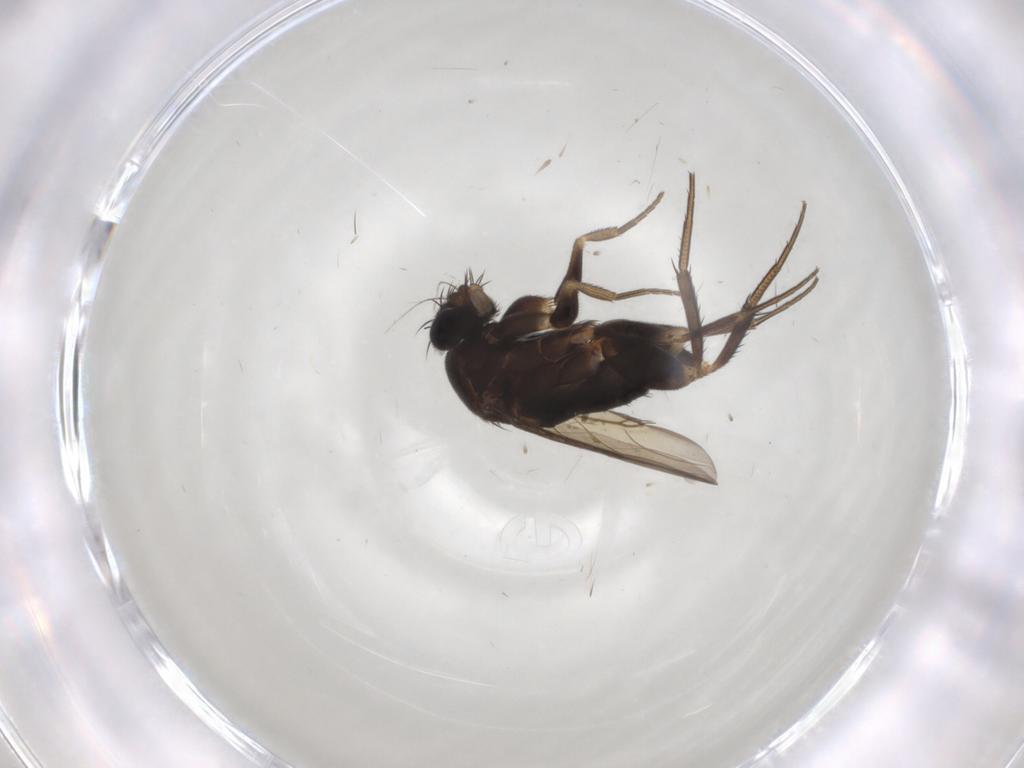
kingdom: Animalia
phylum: Arthropoda
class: Insecta
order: Diptera
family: Phoridae
